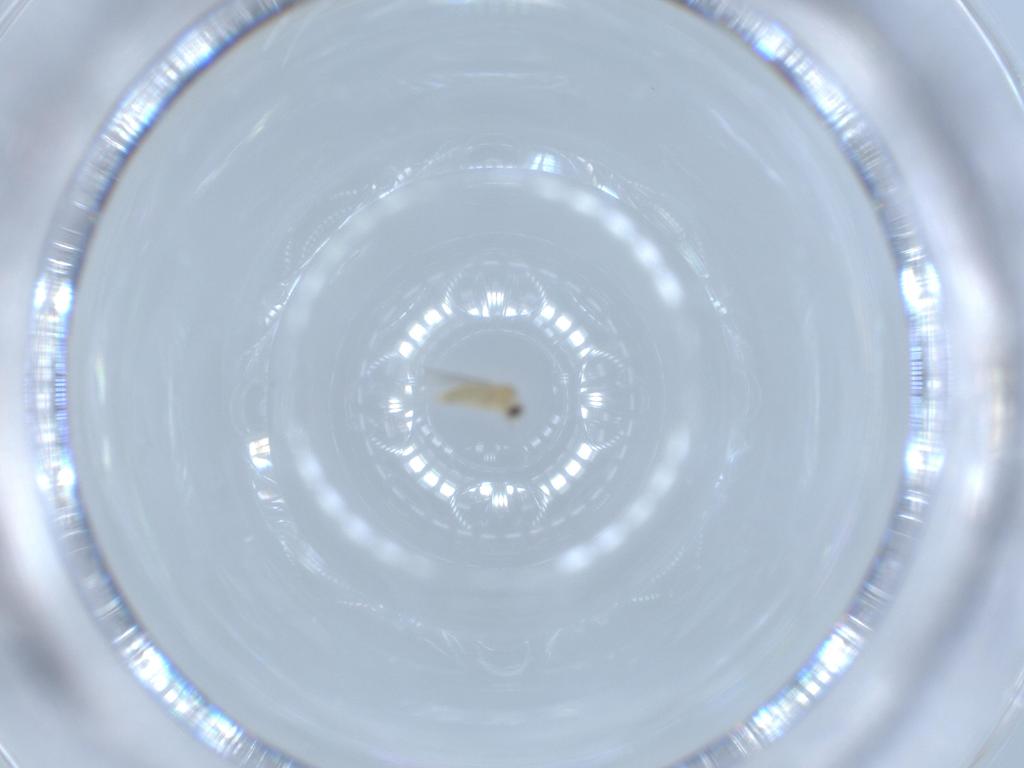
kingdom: Animalia
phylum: Arthropoda
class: Insecta
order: Diptera
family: Cecidomyiidae
